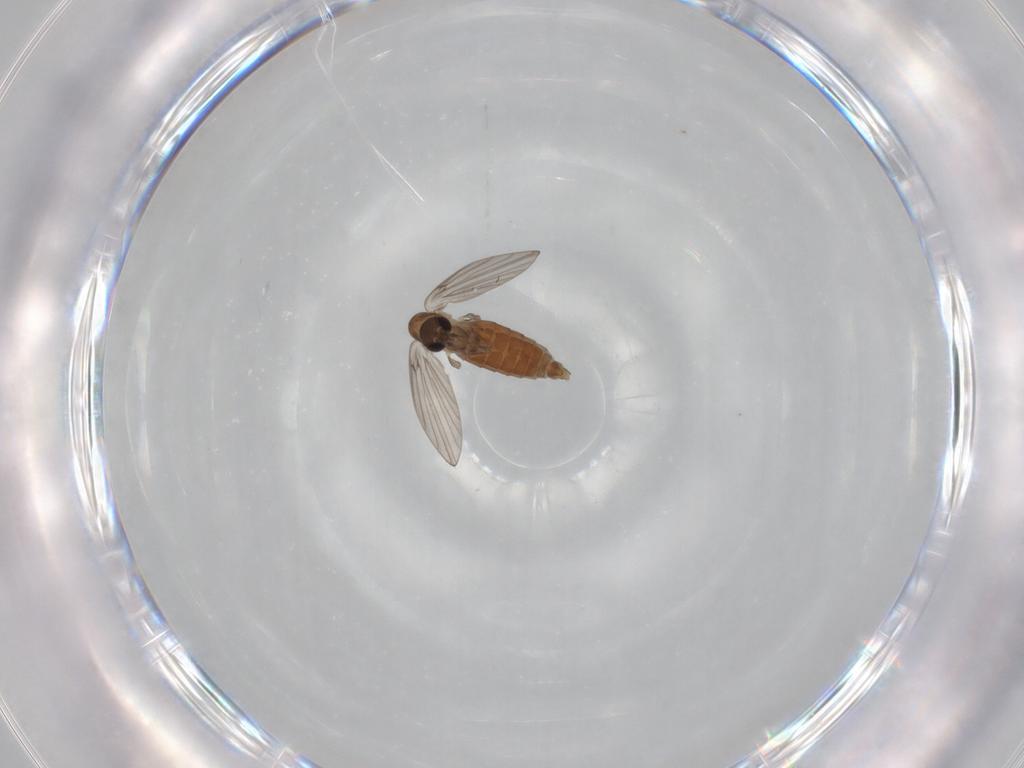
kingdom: Animalia
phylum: Arthropoda
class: Insecta
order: Diptera
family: Psychodidae
